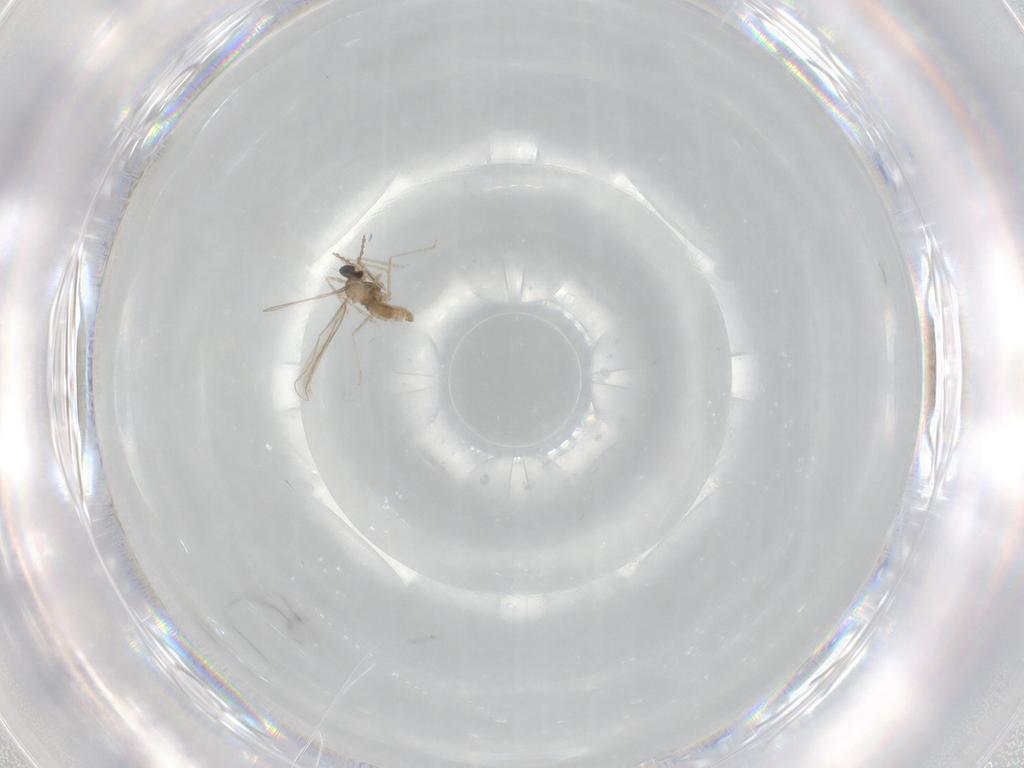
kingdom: Animalia
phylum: Arthropoda
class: Insecta
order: Diptera
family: Cecidomyiidae
